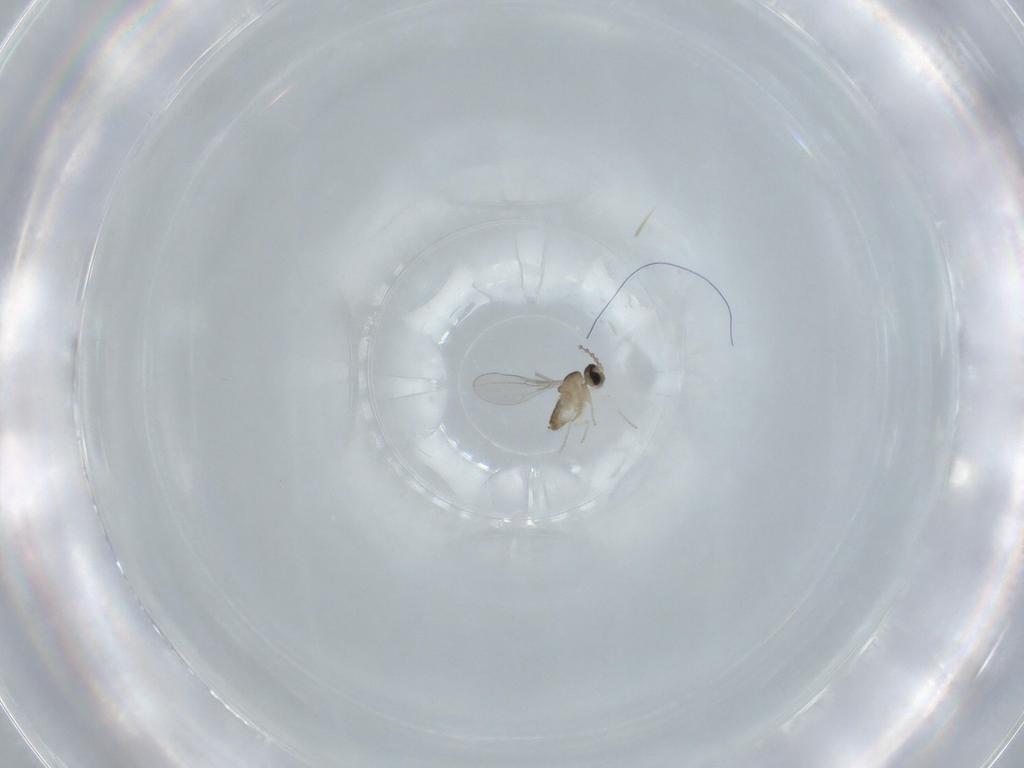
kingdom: Animalia
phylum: Arthropoda
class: Insecta
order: Diptera
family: Phoridae
